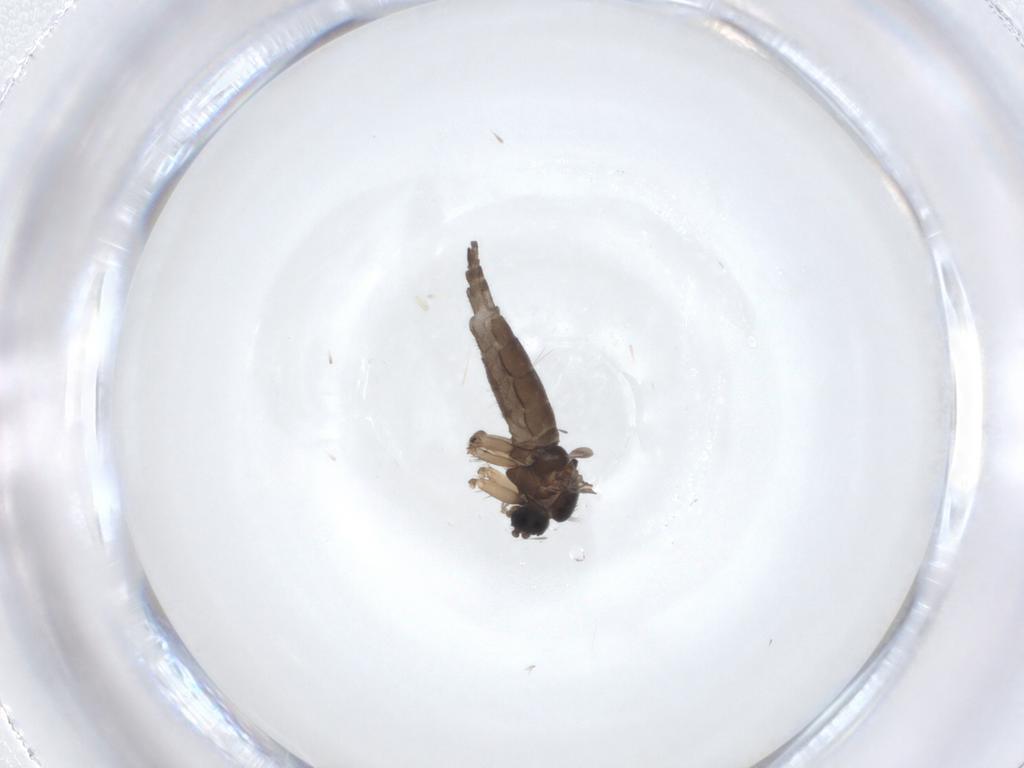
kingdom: Animalia
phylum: Arthropoda
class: Insecta
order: Diptera
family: Sciaridae
